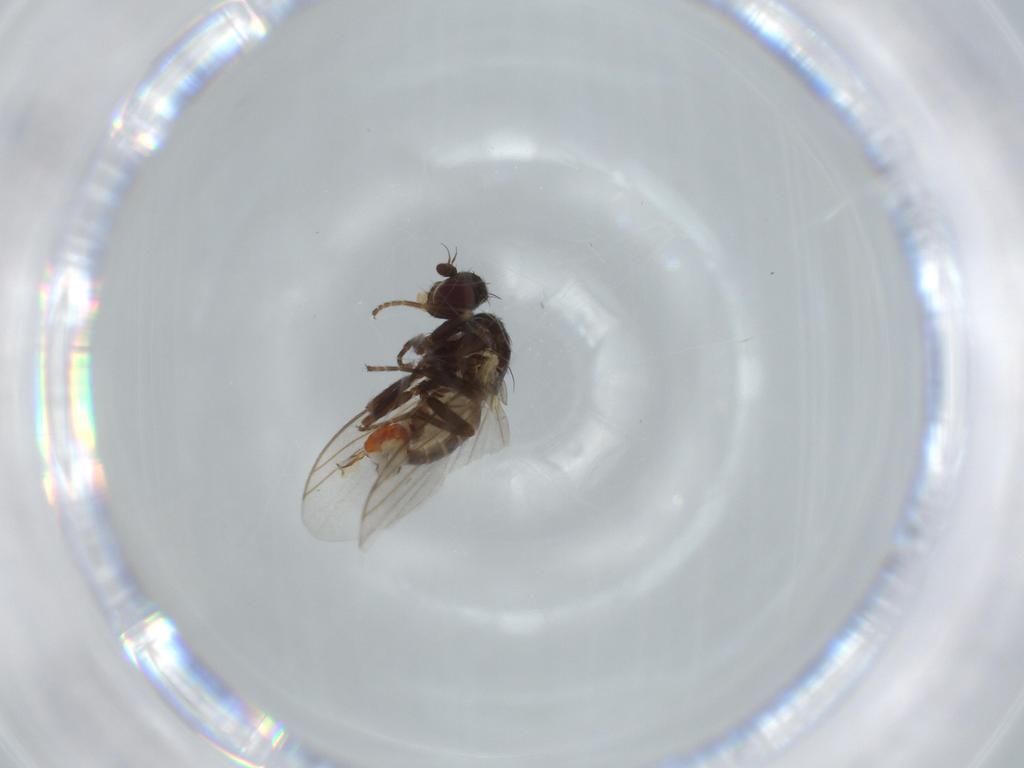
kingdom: Animalia
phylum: Arthropoda
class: Insecta
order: Diptera
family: Agromyzidae
